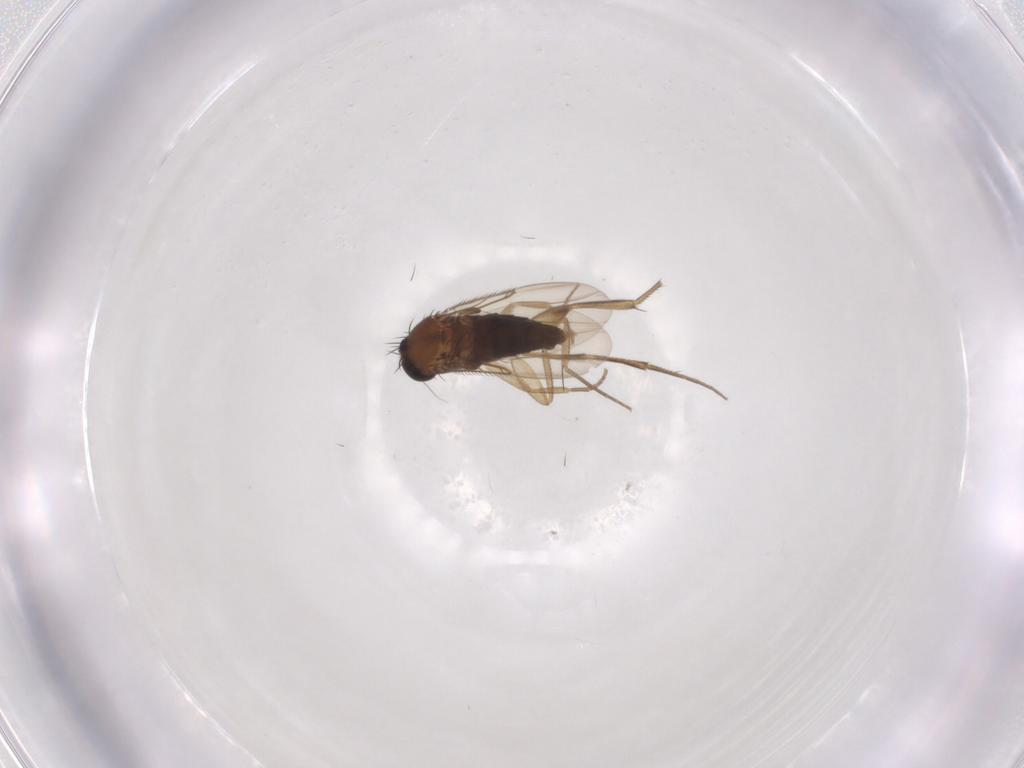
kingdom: Animalia
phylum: Arthropoda
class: Insecta
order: Diptera
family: Phoridae
